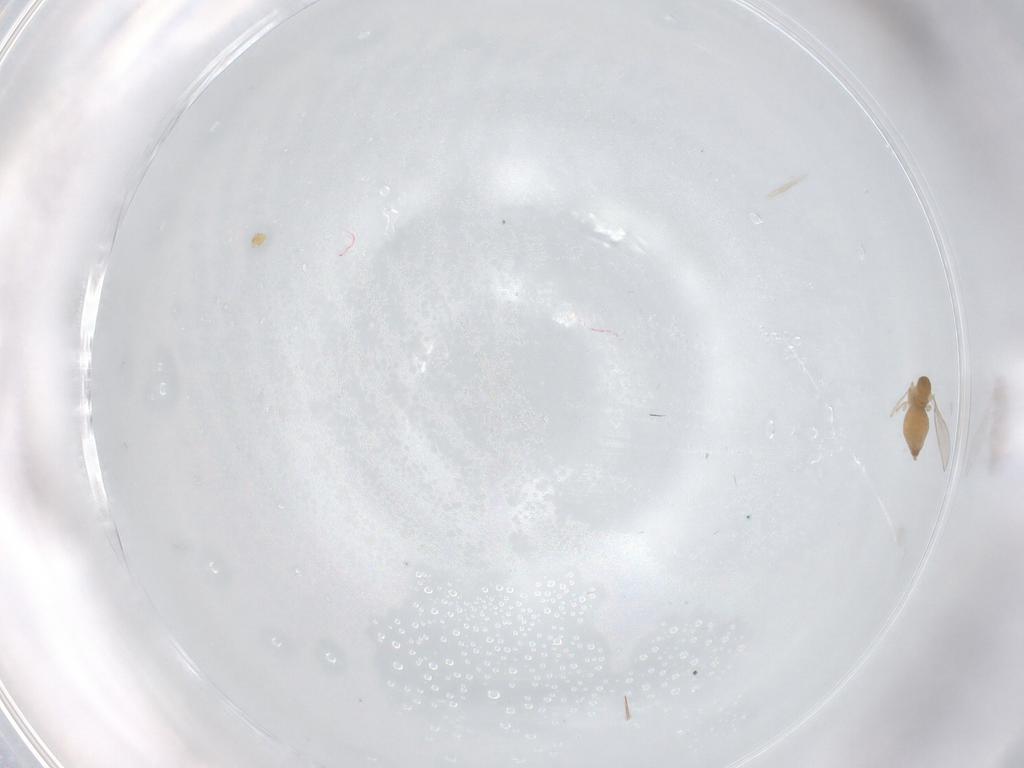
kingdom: Animalia
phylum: Arthropoda
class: Insecta
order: Diptera
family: Cecidomyiidae
